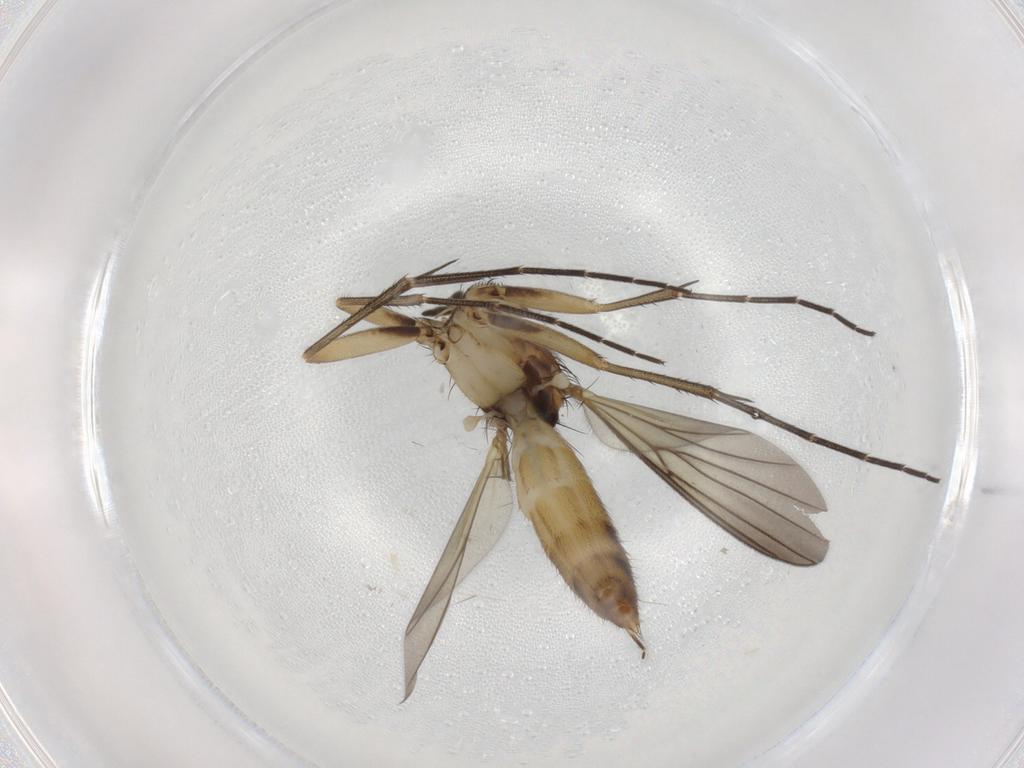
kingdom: Animalia
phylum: Arthropoda
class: Insecta
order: Diptera
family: Mycetophilidae
